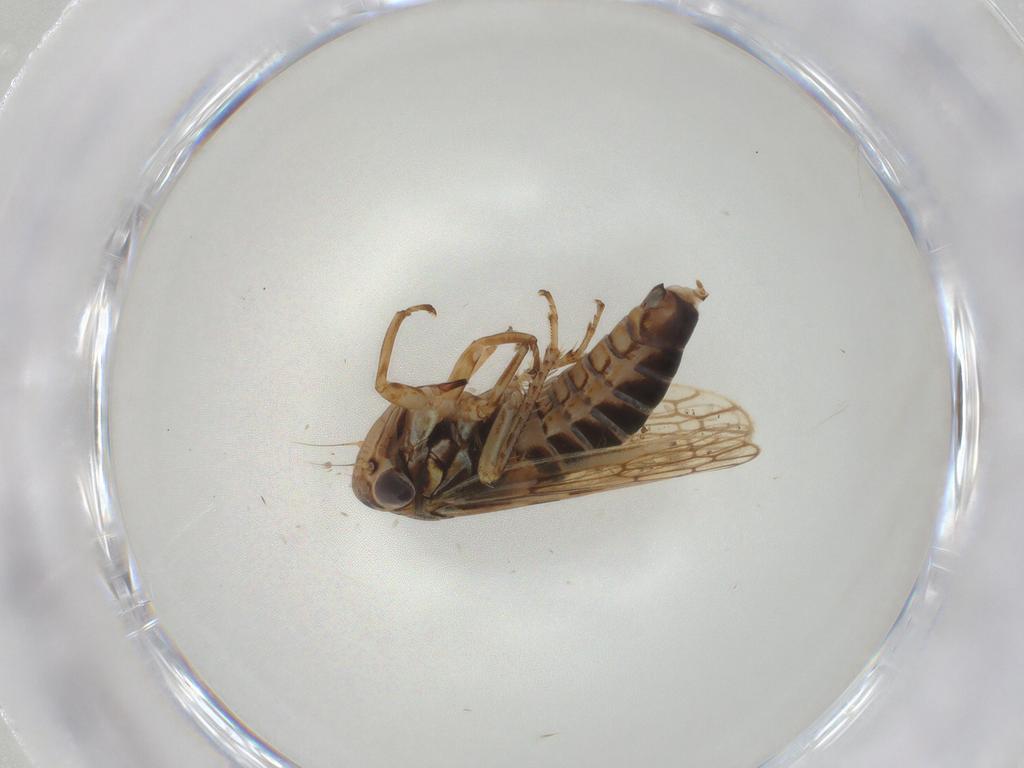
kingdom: Animalia
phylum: Arthropoda
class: Insecta
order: Hemiptera
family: Cicadellidae
